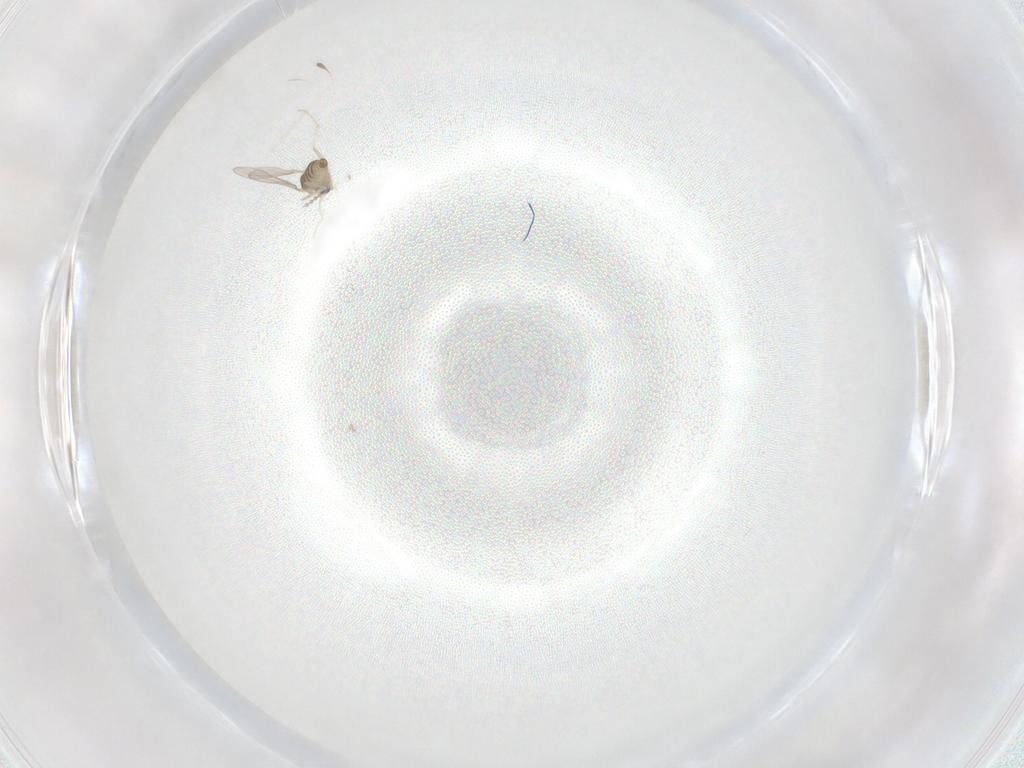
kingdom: Animalia
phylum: Arthropoda
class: Insecta
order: Diptera
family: Cecidomyiidae
